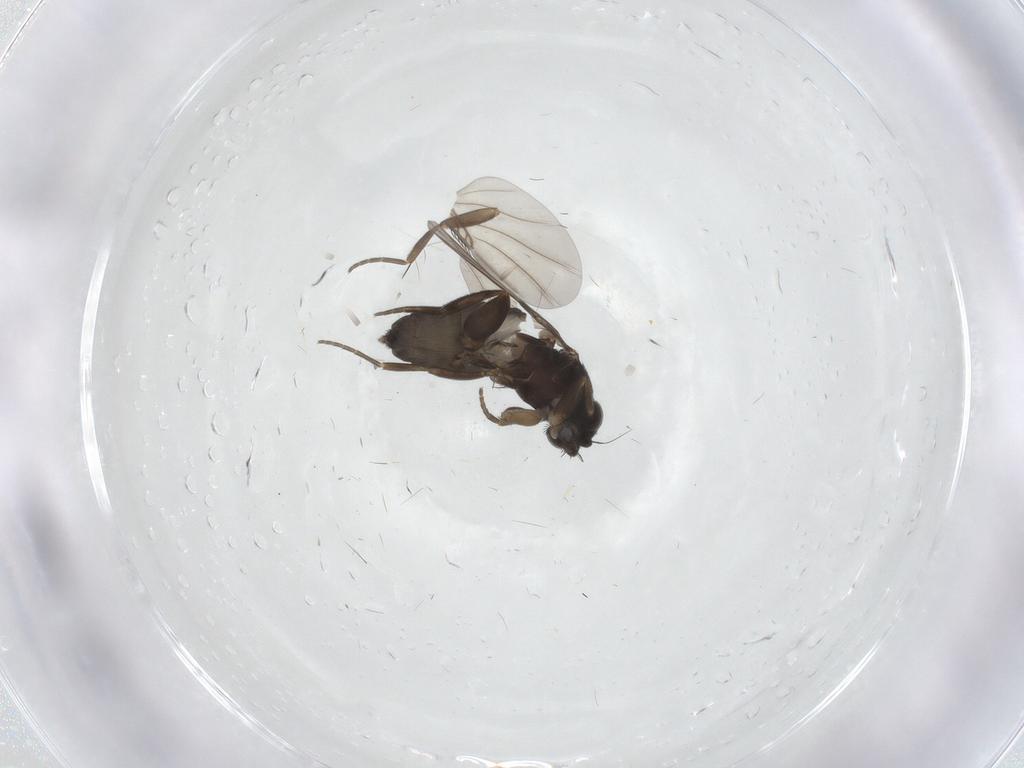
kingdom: Animalia
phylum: Arthropoda
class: Insecta
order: Diptera
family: Phoridae
